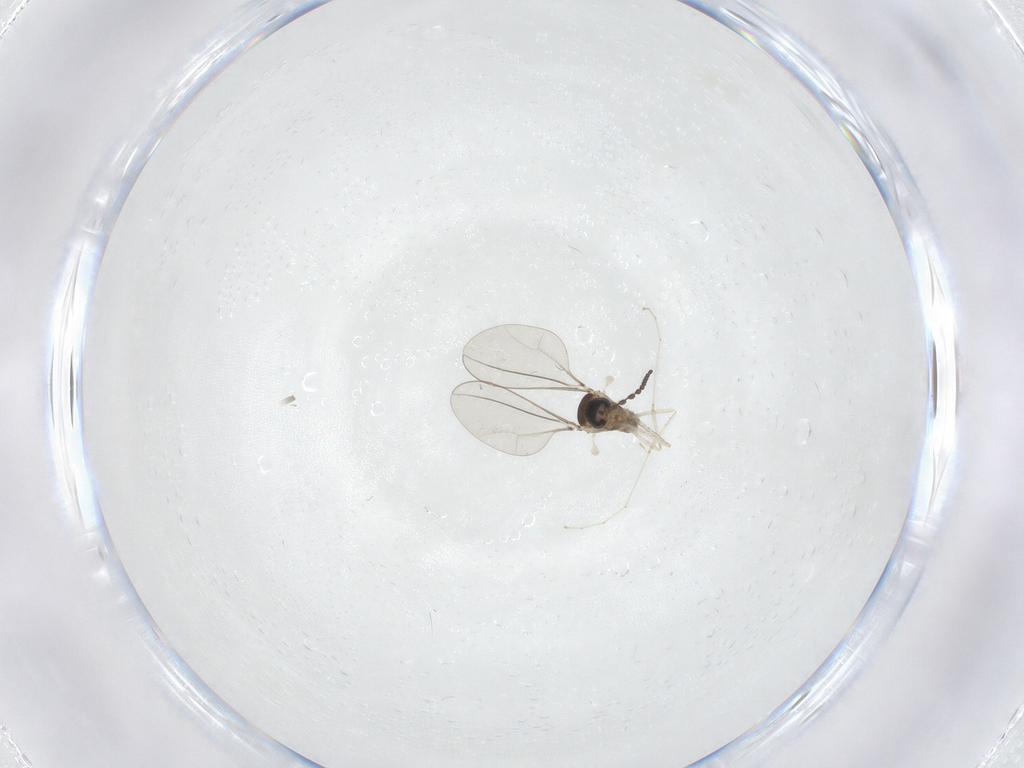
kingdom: Animalia
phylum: Arthropoda
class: Insecta
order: Diptera
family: Cecidomyiidae
